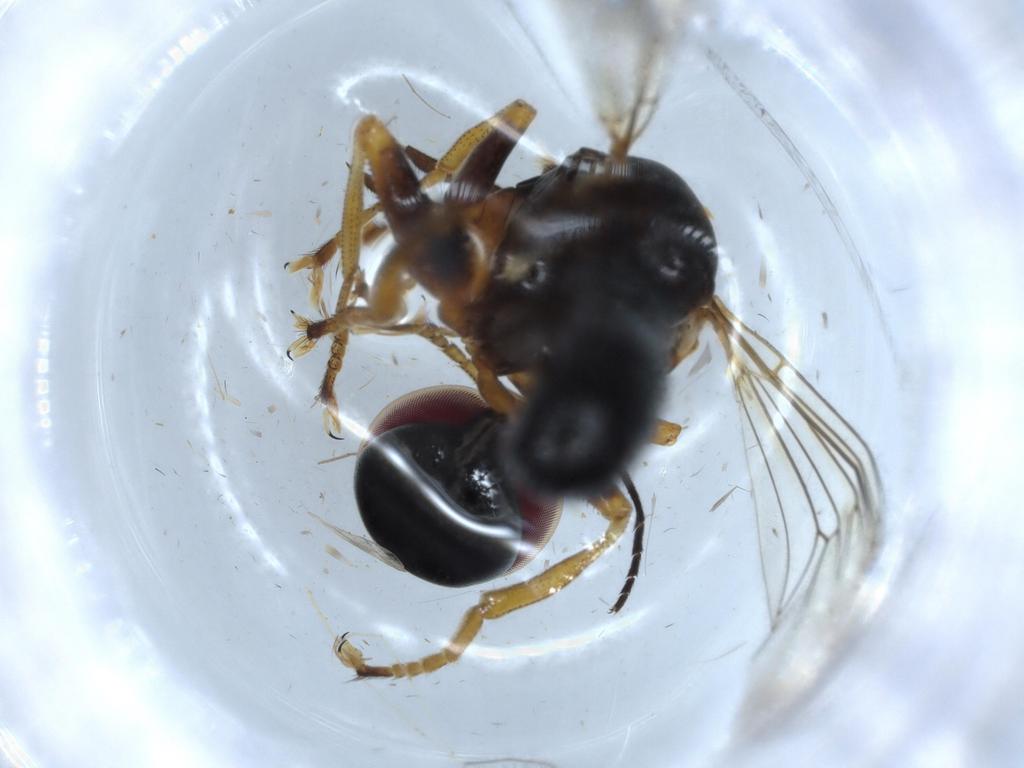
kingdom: Animalia
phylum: Arthropoda
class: Insecta
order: Diptera
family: Pipunculidae
